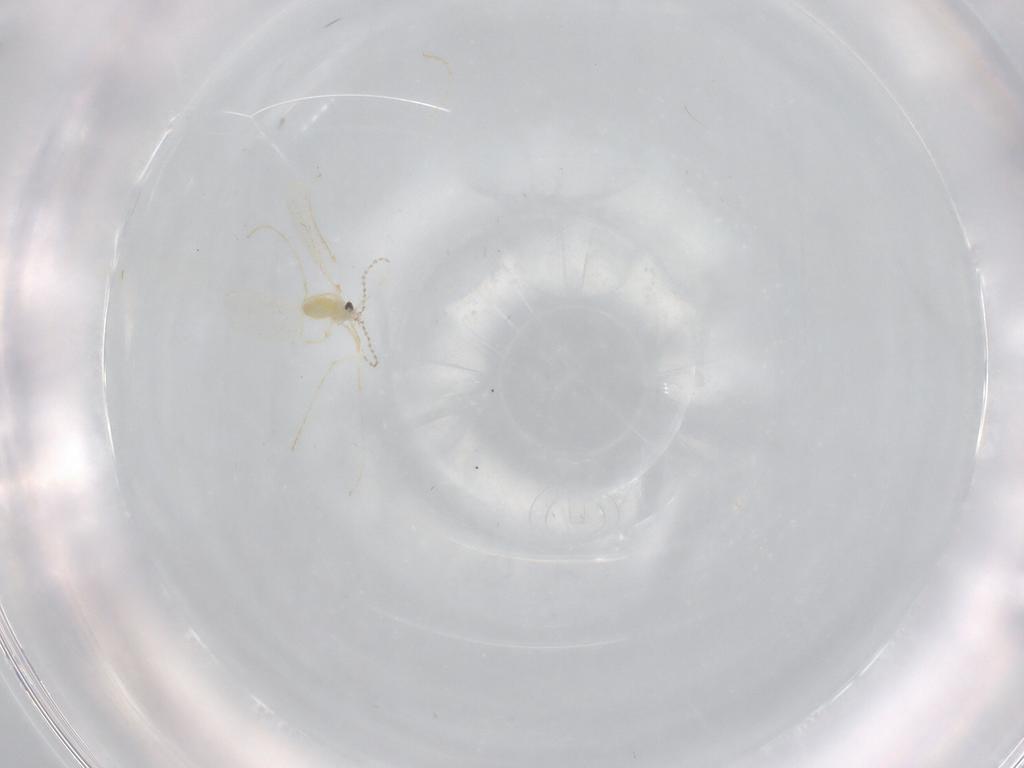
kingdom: Animalia
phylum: Arthropoda
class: Insecta
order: Diptera
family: Cecidomyiidae
